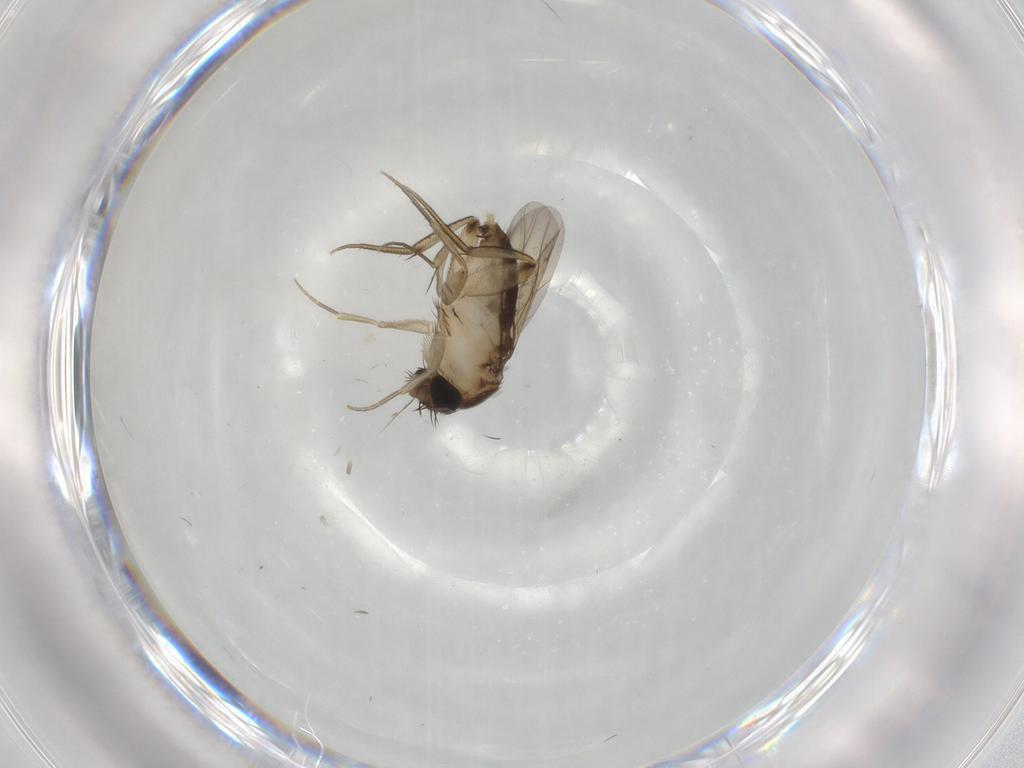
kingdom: Animalia
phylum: Arthropoda
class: Insecta
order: Diptera
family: Phoridae
